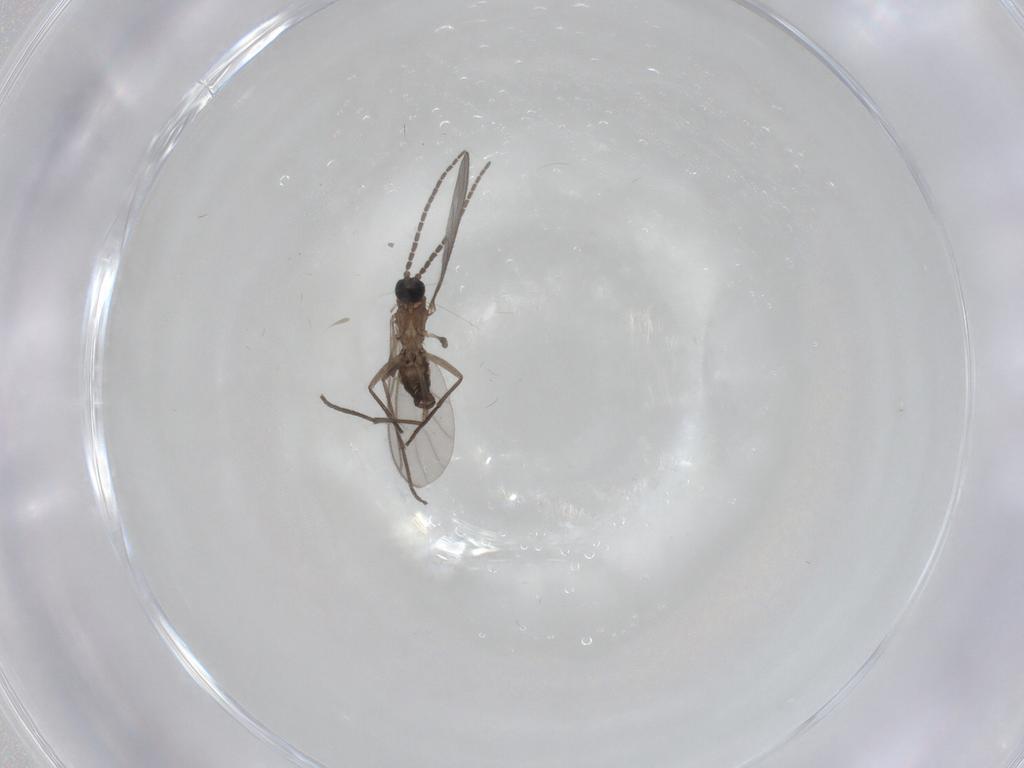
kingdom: Animalia
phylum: Arthropoda
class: Insecta
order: Diptera
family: Agromyzidae
